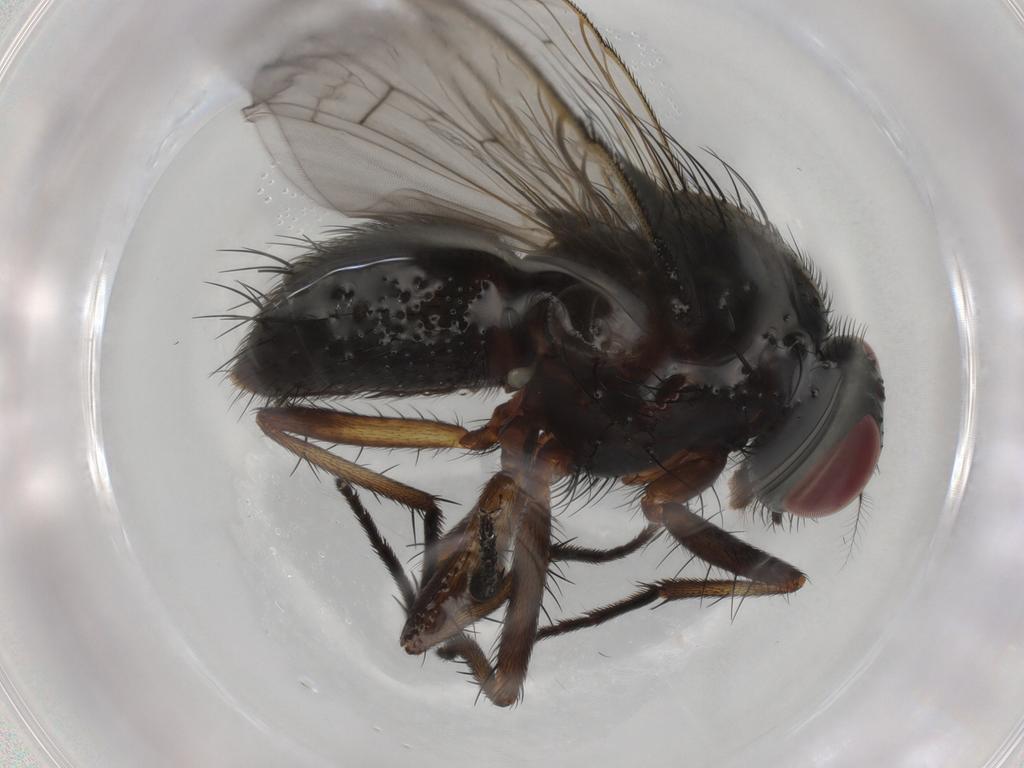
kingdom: Animalia
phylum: Arthropoda
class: Insecta
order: Diptera
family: Muscidae
